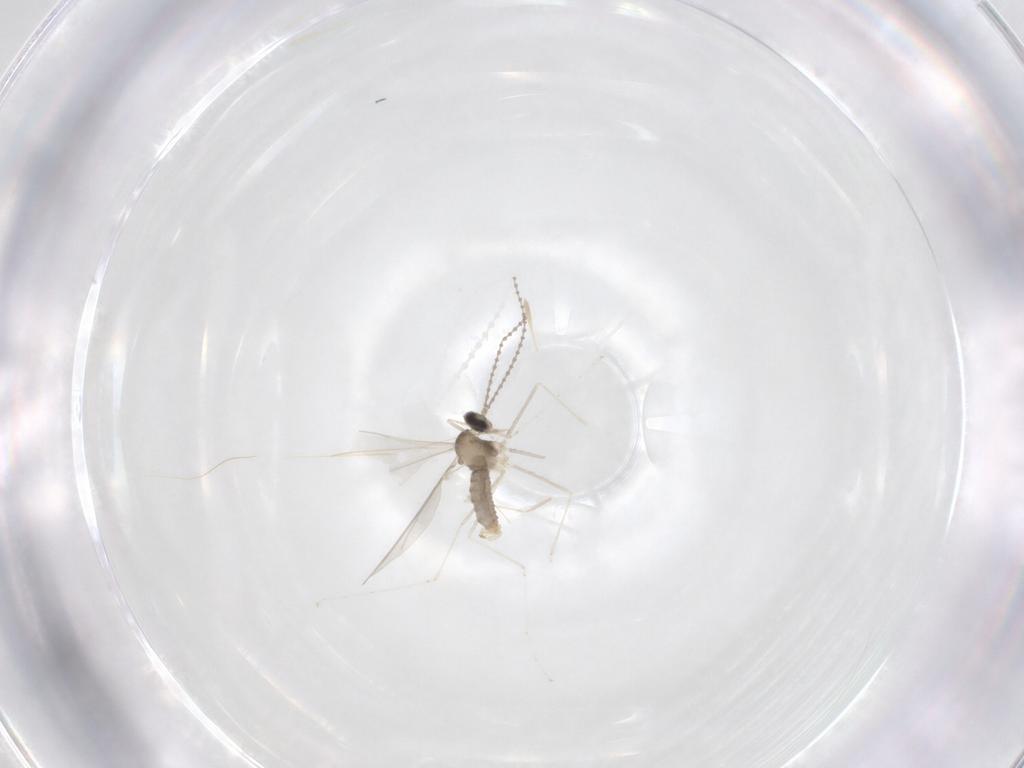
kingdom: Animalia
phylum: Arthropoda
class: Insecta
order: Diptera
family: Cecidomyiidae
